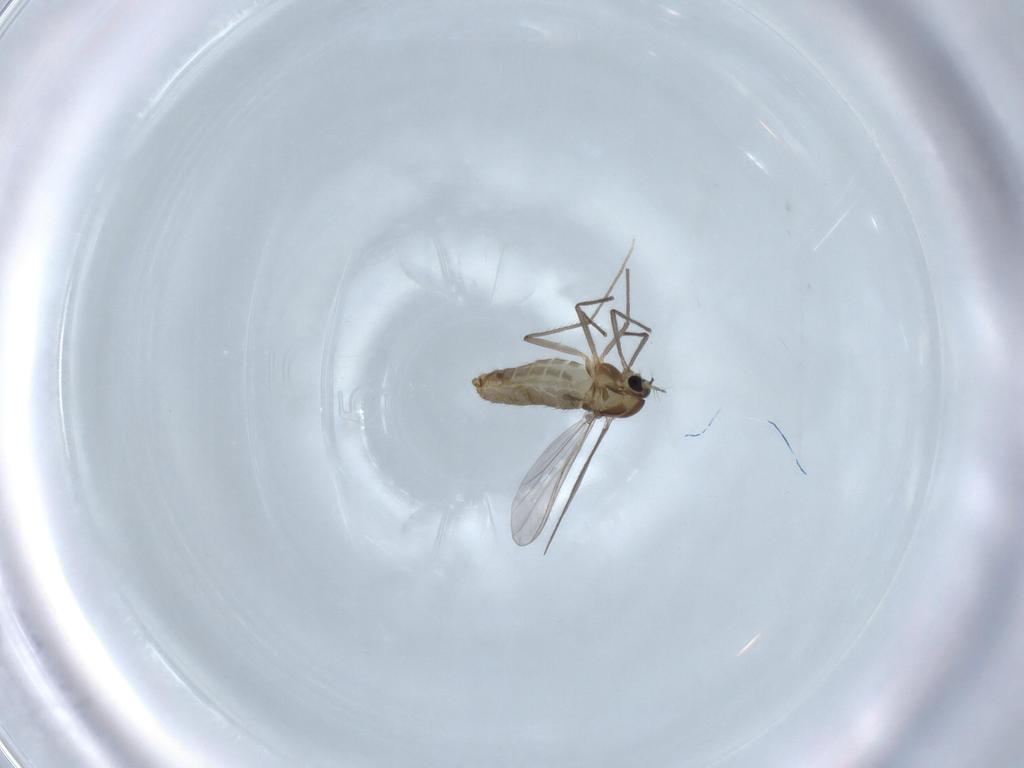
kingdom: Animalia
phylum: Arthropoda
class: Insecta
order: Diptera
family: Chironomidae
